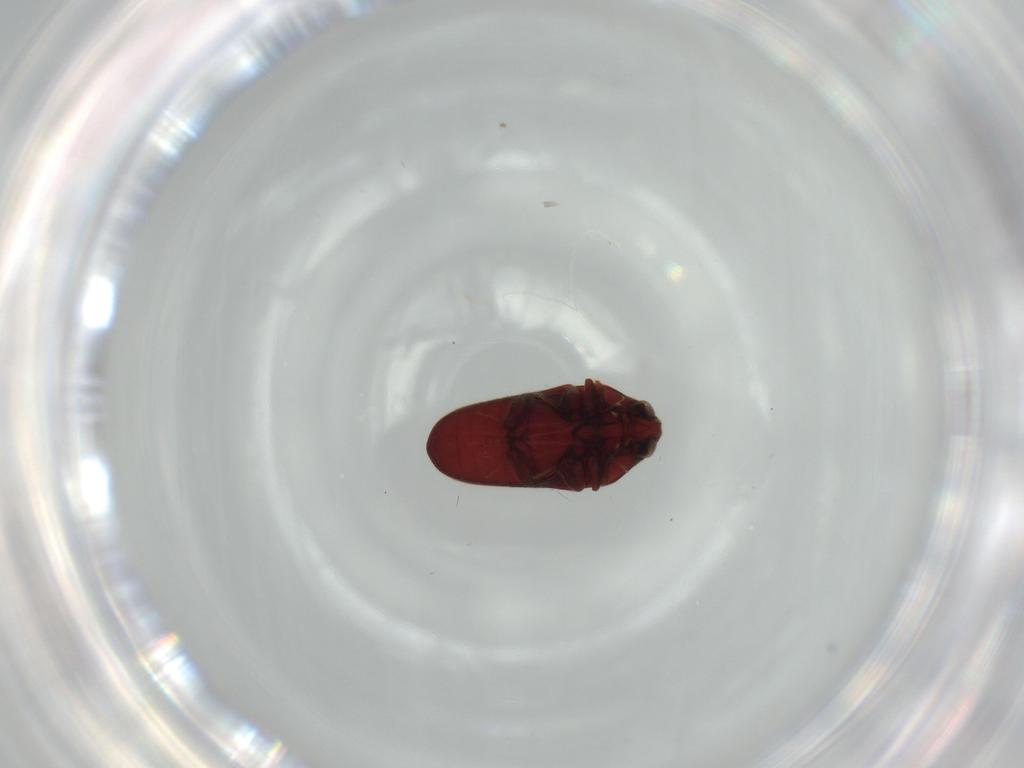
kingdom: Animalia
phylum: Arthropoda
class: Insecta
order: Coleoptera
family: Throscidae
